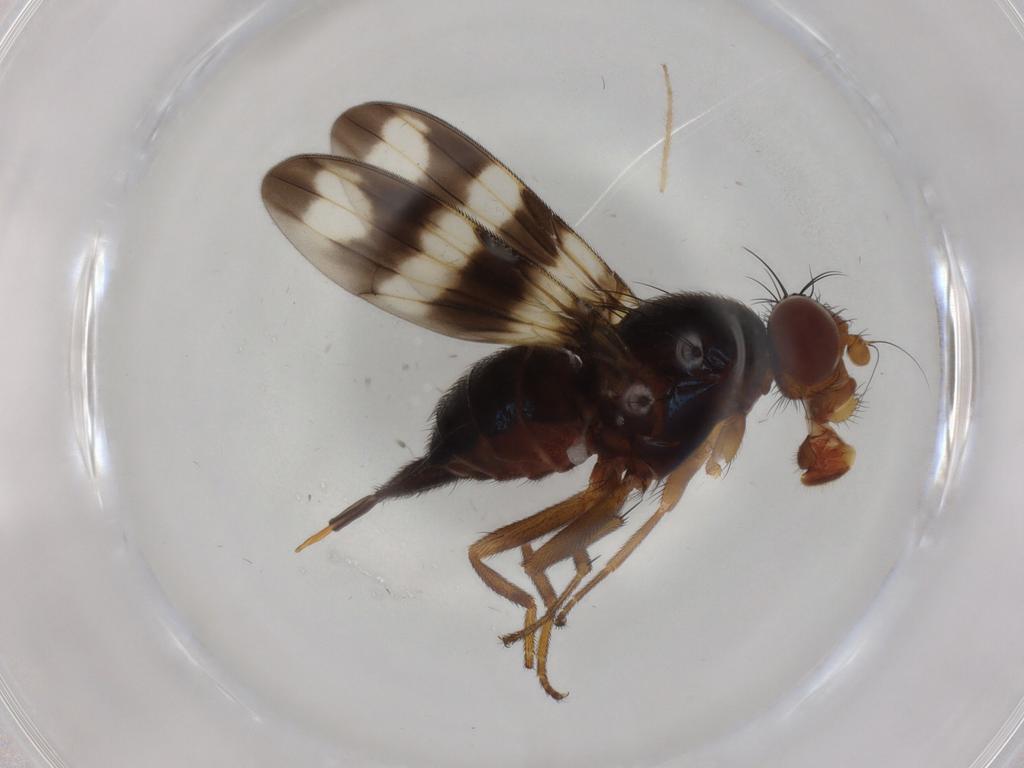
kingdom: Animalia
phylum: Arthropoda
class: Insecta
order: Diptera
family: Ulidiidae
